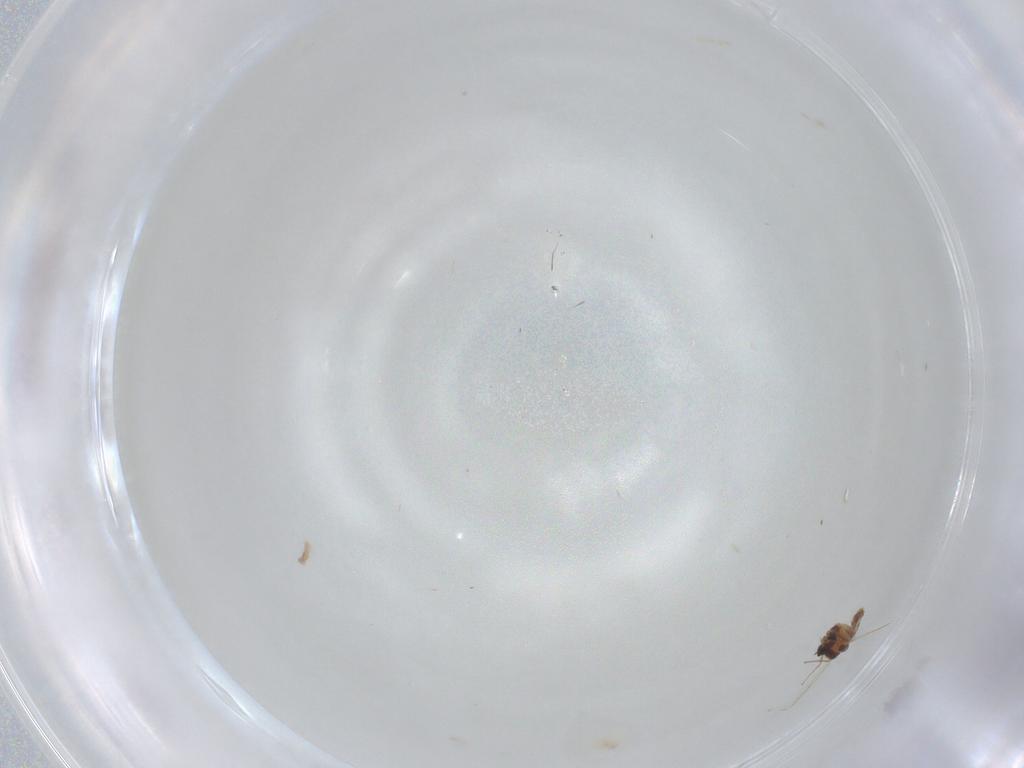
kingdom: Animalia
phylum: Arthropoda
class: Insecta
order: Diptera
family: Chironomidae
